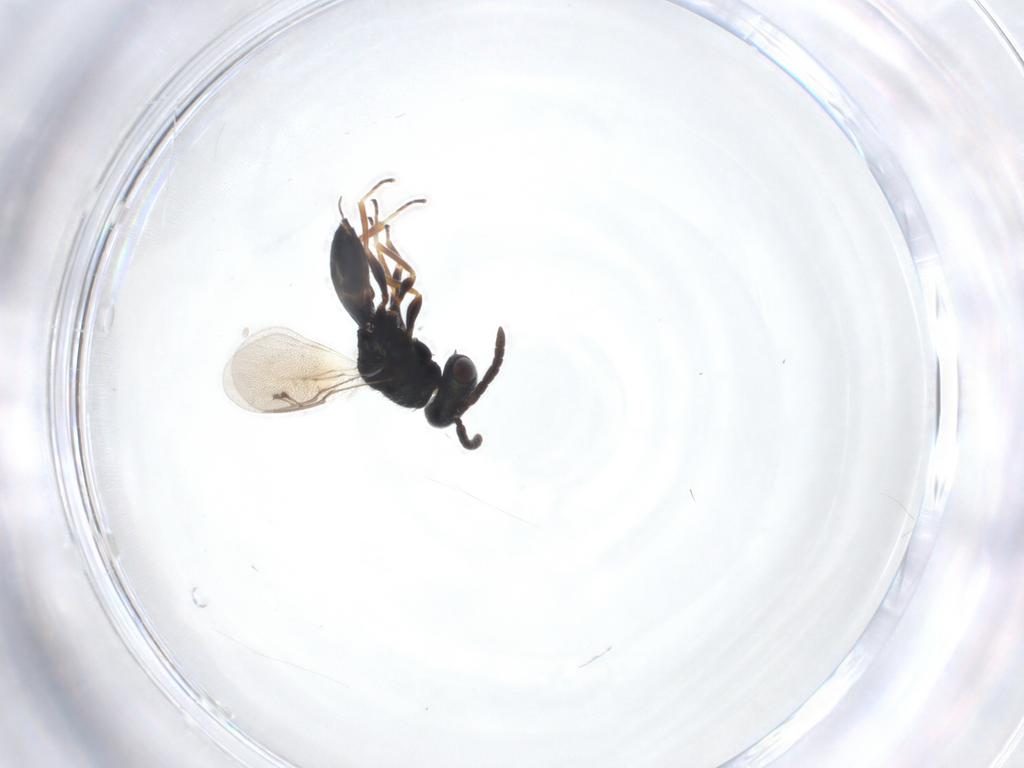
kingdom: Animalia
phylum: Arthropoda
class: Insecta
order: Hymenoptera
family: Pteromalidae
